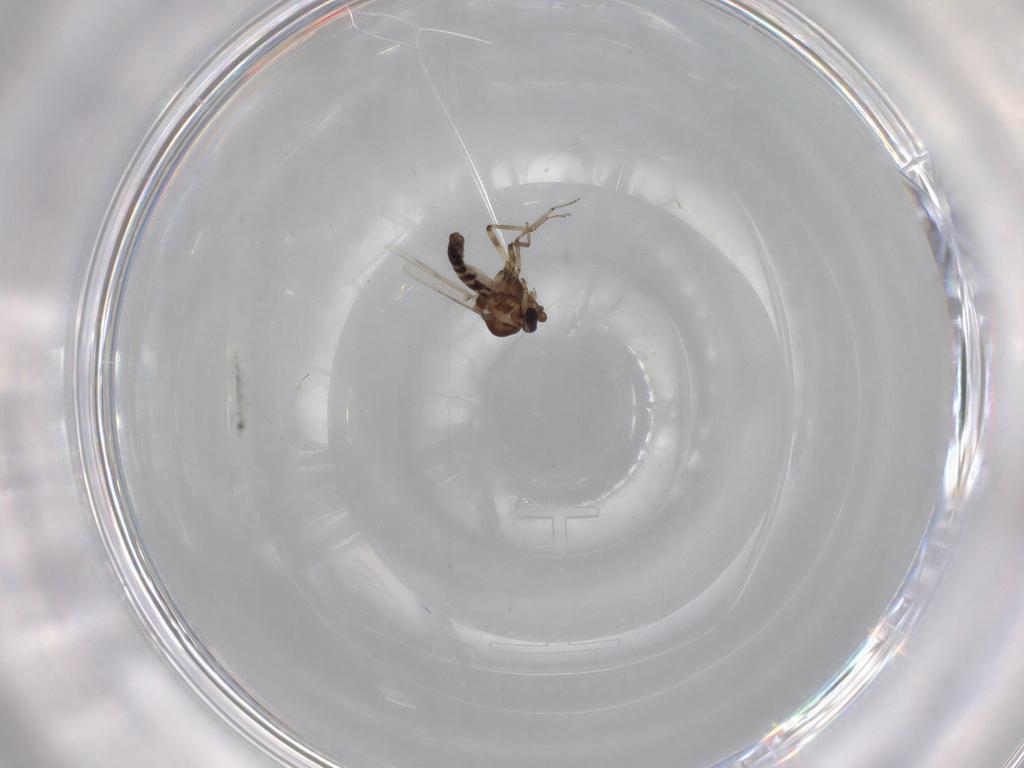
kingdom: Animalia
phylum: Arthropoda
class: Insecta
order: Diptera
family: Ceratopogonidae
